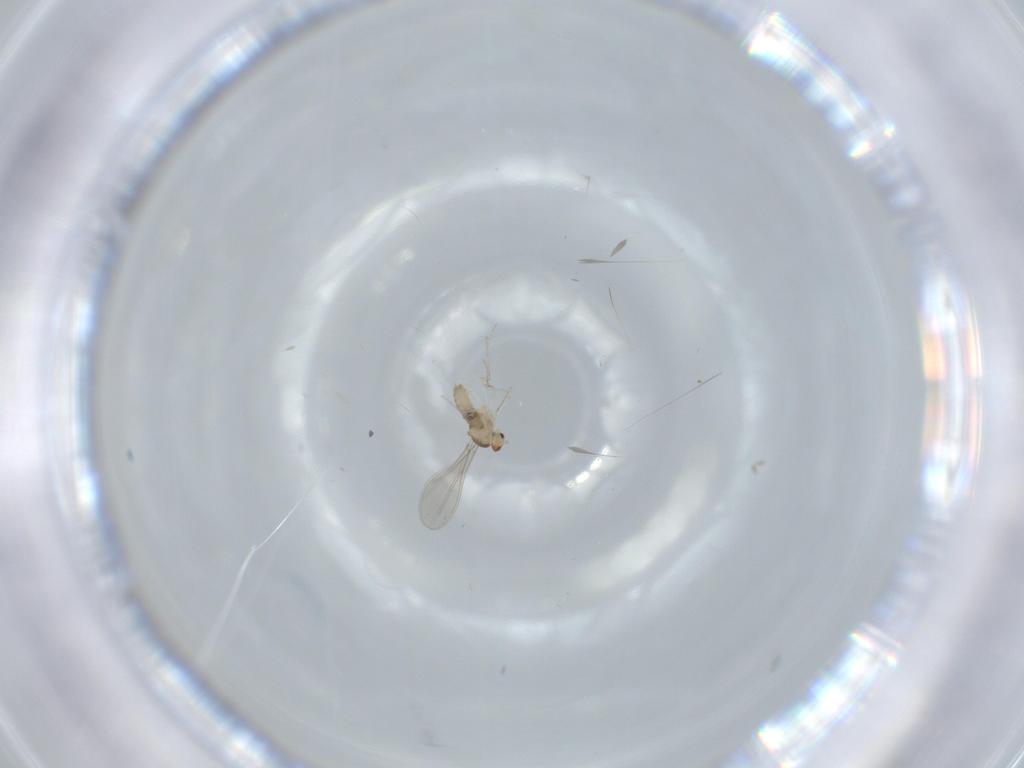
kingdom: Animalia
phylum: Arthropoda
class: Insecta
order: Diptera
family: Cecidomyiidae
